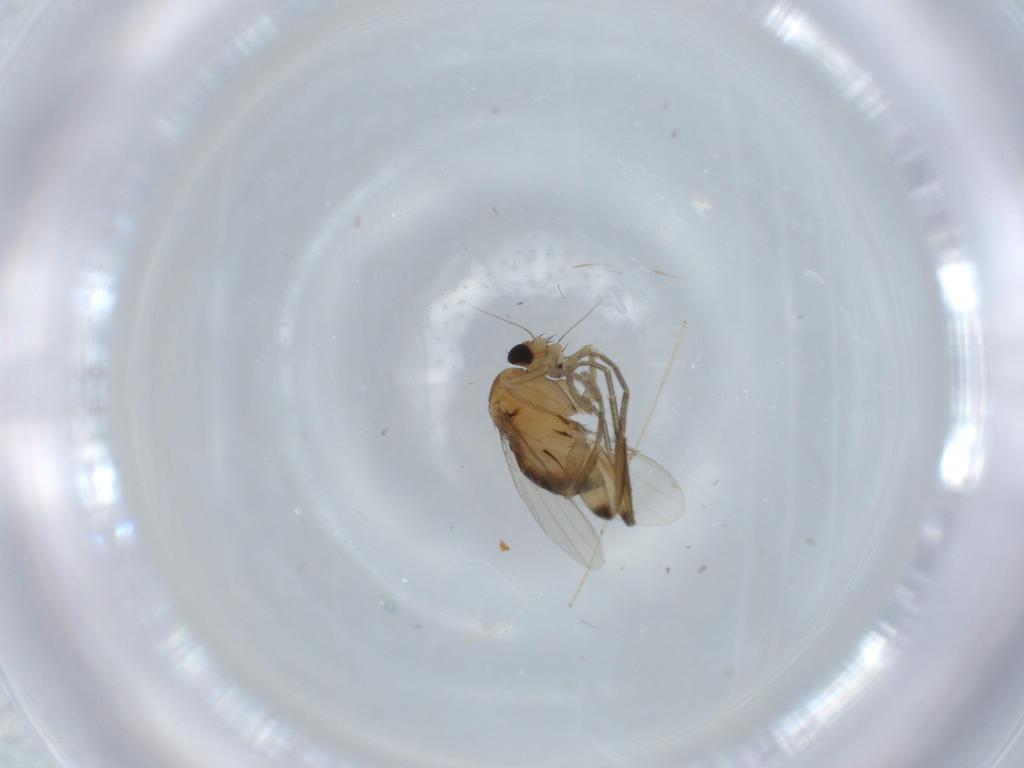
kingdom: Animalia
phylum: Arthropoda
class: Insecta
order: Diptera
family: Phoridae
